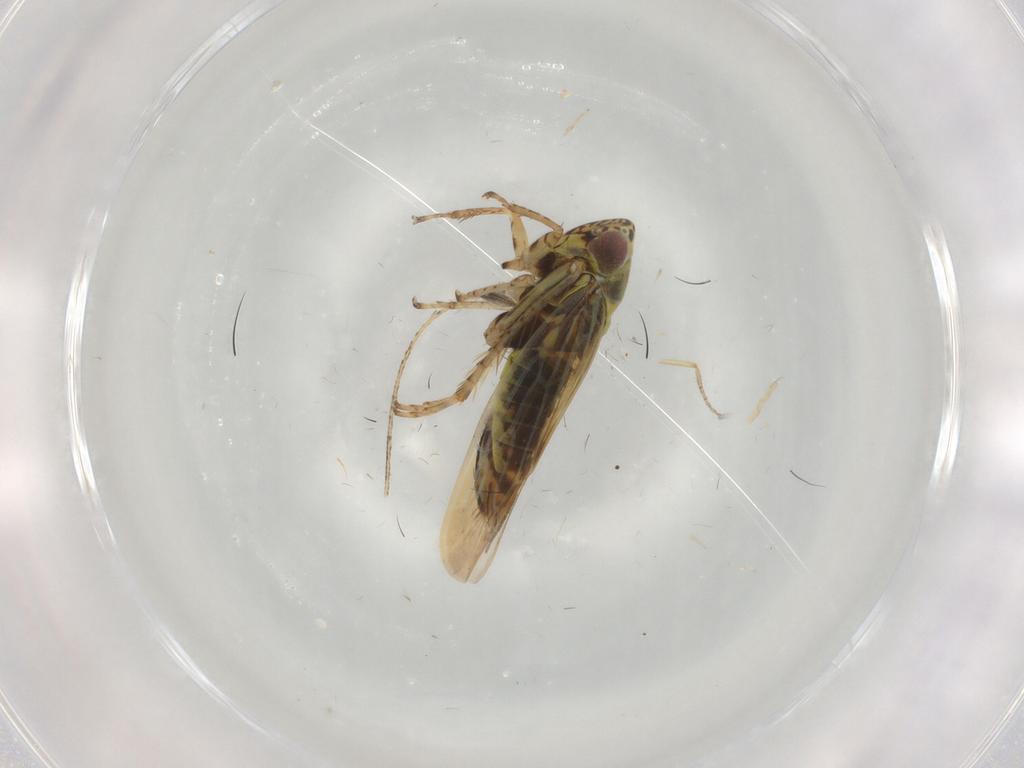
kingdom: Animalia
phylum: Arthropoda
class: Insecta
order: Hemiptera
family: Cicadellidae
